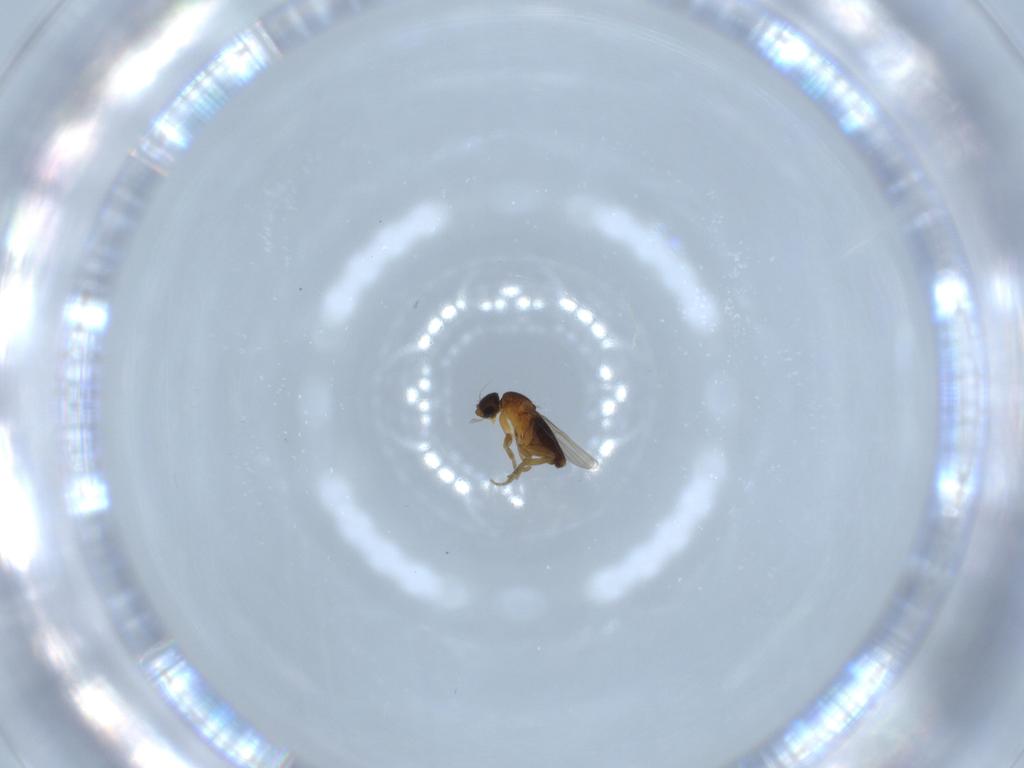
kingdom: Animalia
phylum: Arthropoda
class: Insecta
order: Diptera
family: Phoridae
